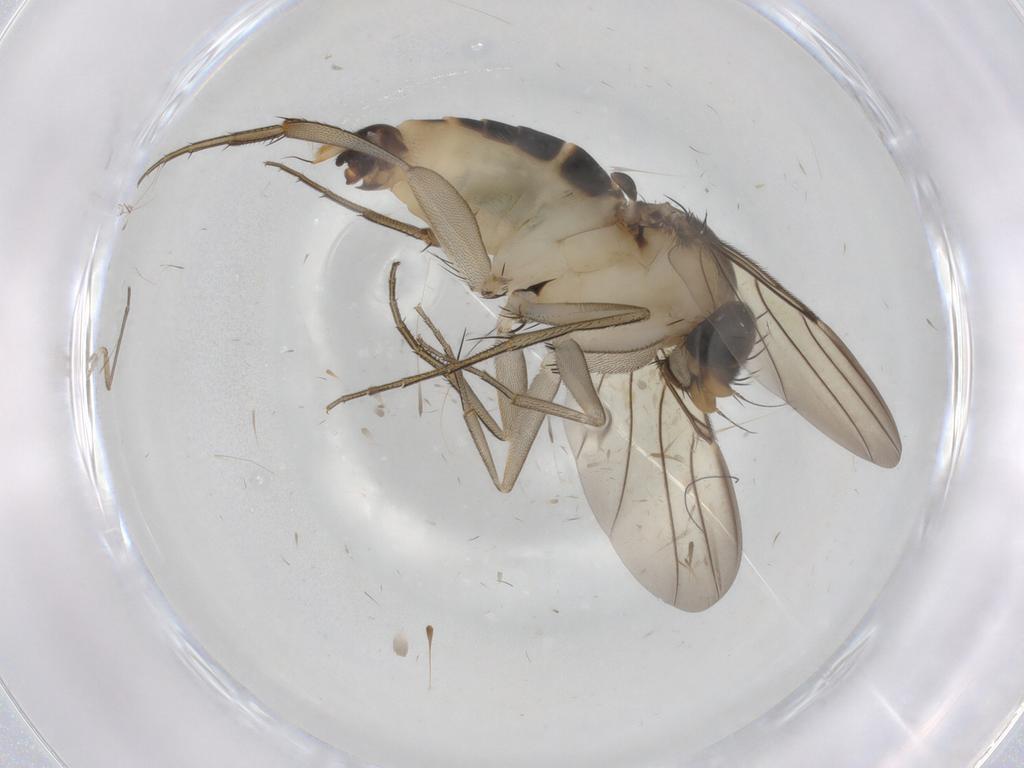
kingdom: Animalia
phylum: Arthropoda
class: Insecta
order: Diptera
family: Phoridae
